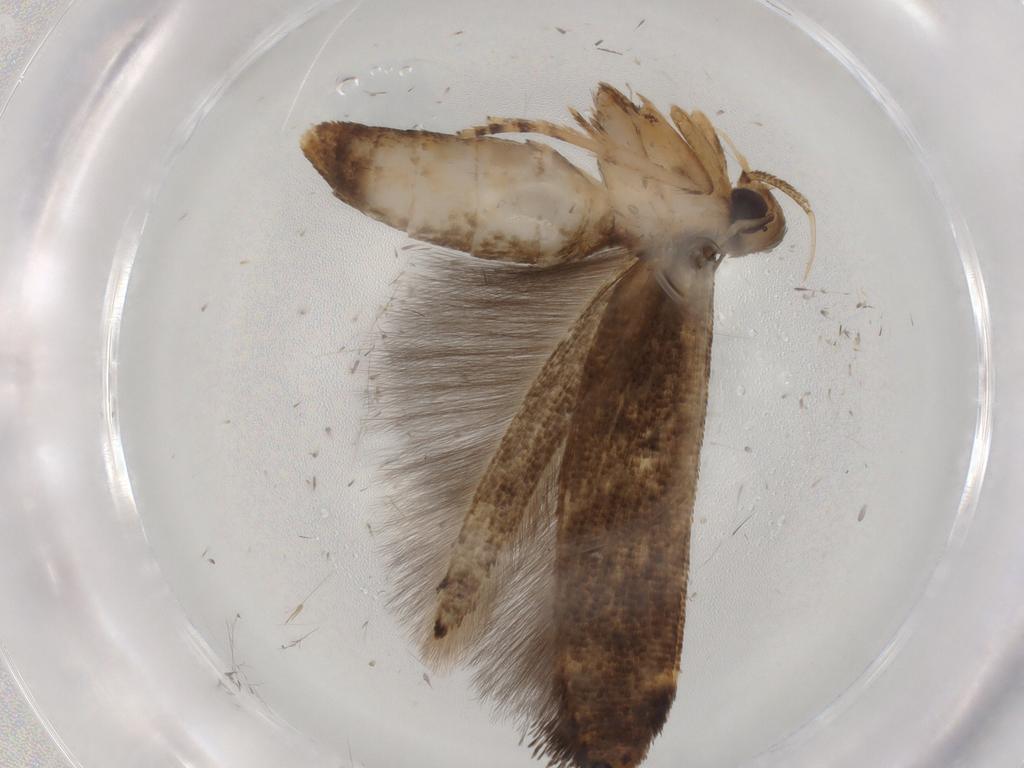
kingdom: Animalia
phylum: Arthropoda
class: Insecta
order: Lepidoptera
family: Cosmopterigidae
